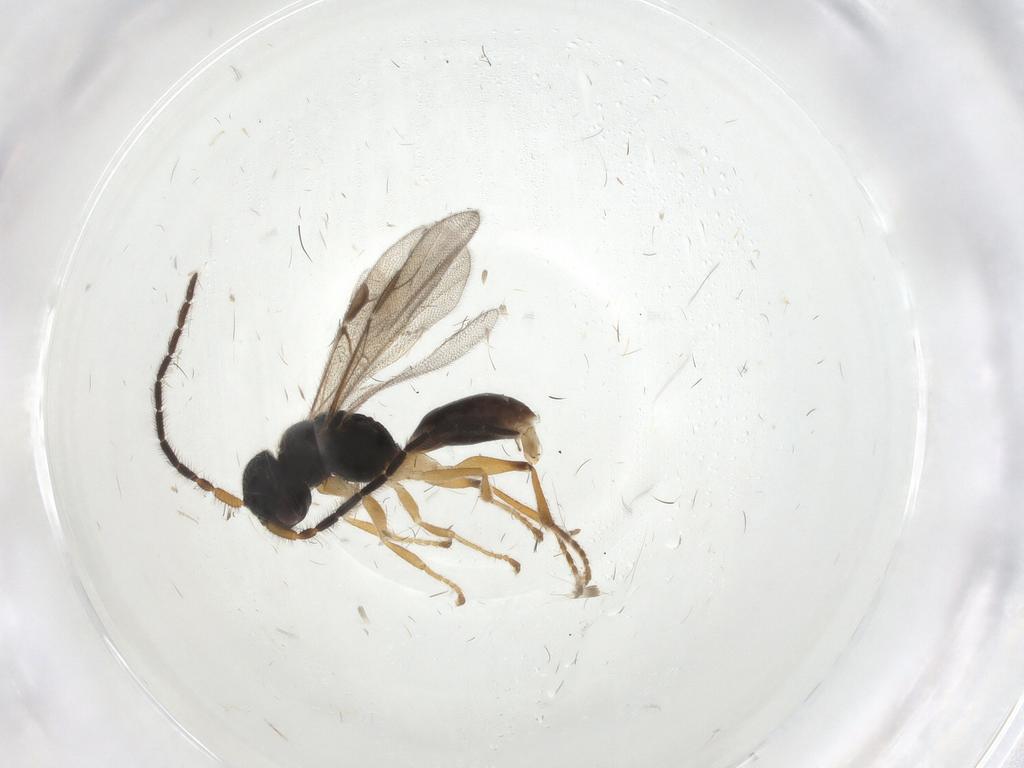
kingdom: Animalia
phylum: Arthropoda
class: Insecta
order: Hymenoptera
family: Dryinidae
